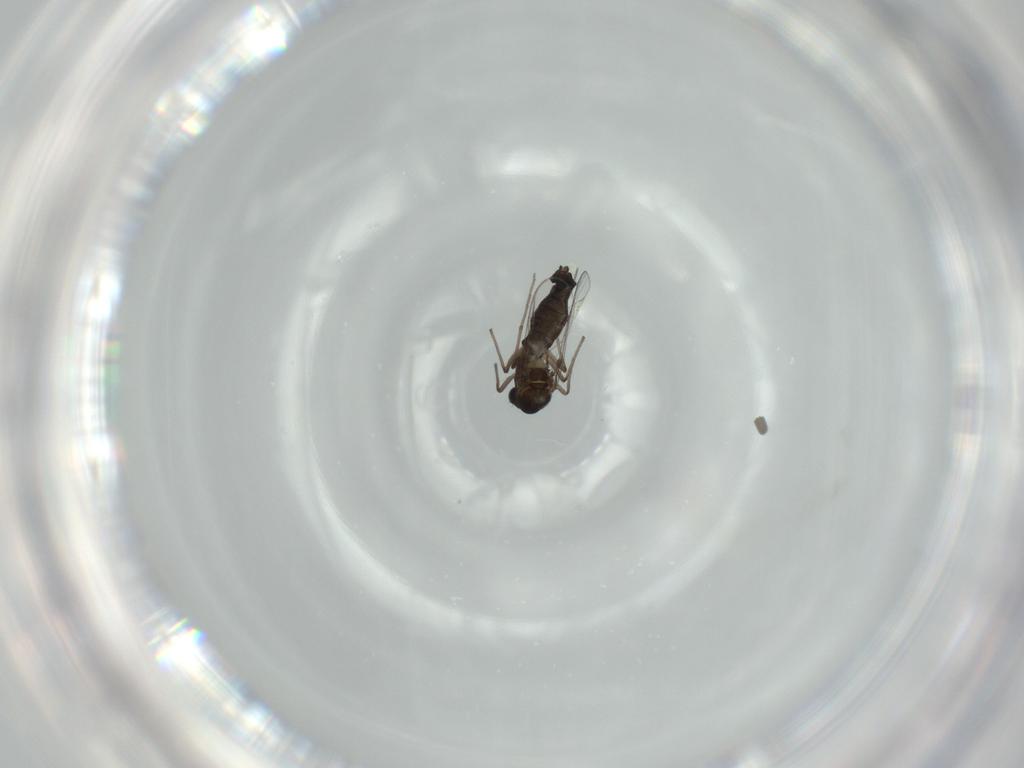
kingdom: Animalia
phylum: Arthropoda
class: Insecta
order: Diptera
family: Chironomidae
